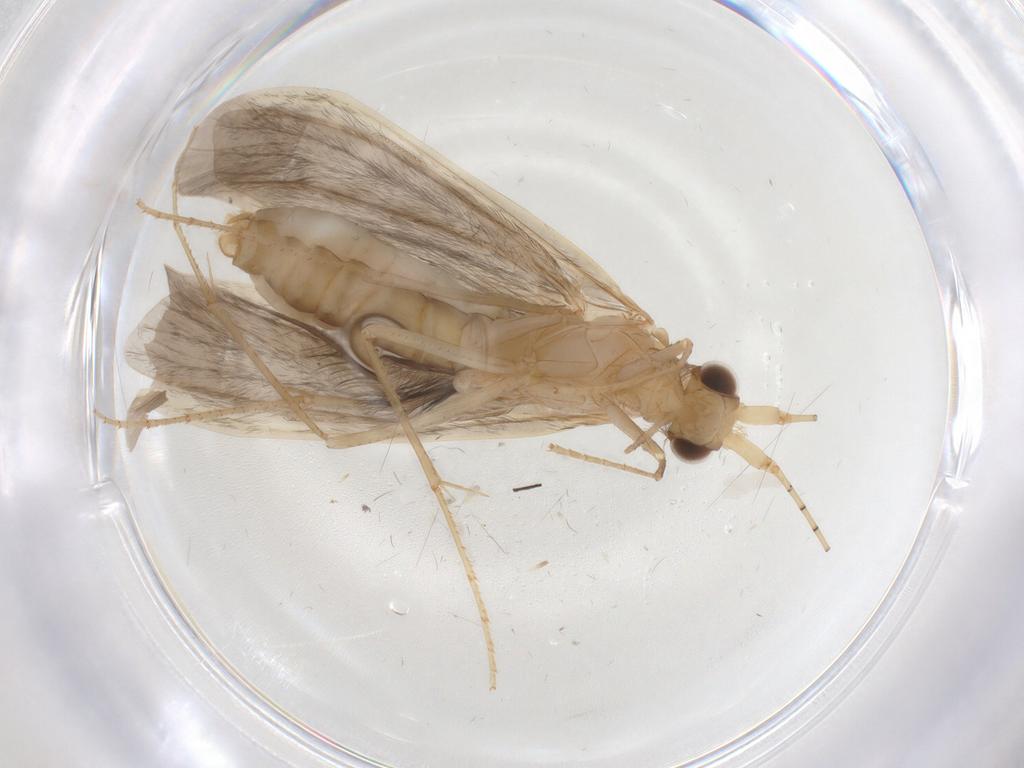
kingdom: Animalia
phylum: Arthropoda
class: Insecta
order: Trichoptera
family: Leptoceridae
